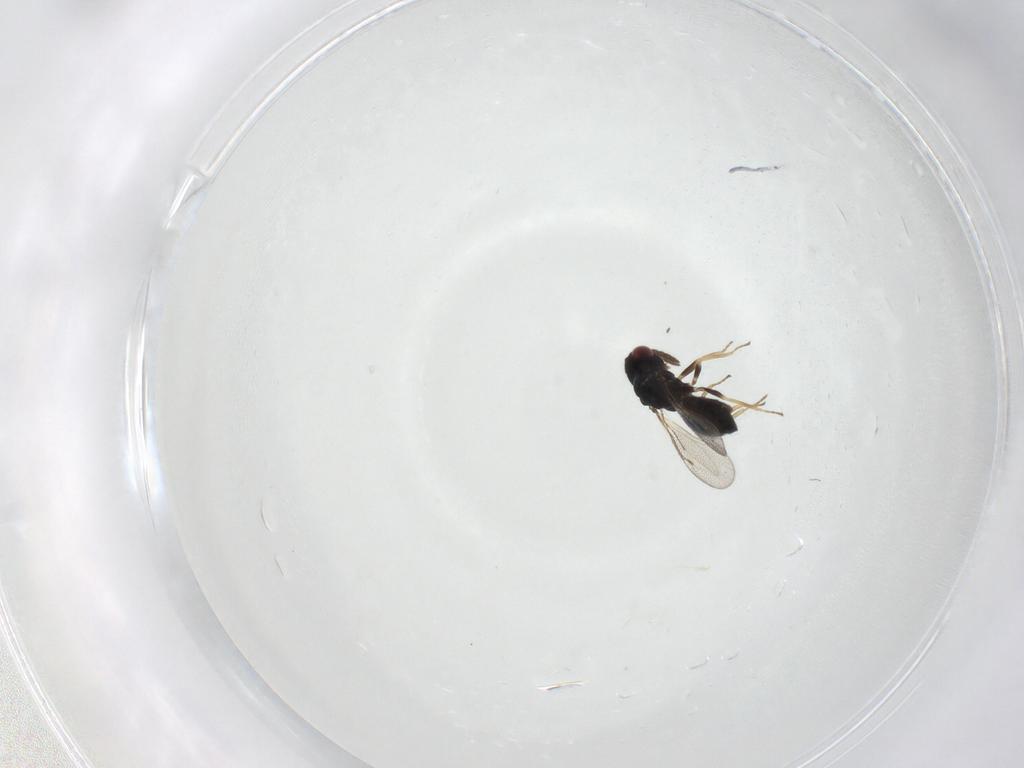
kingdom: Animalia
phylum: Arthropoda
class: Insecta
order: Hymenoptera
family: Eulophidae
